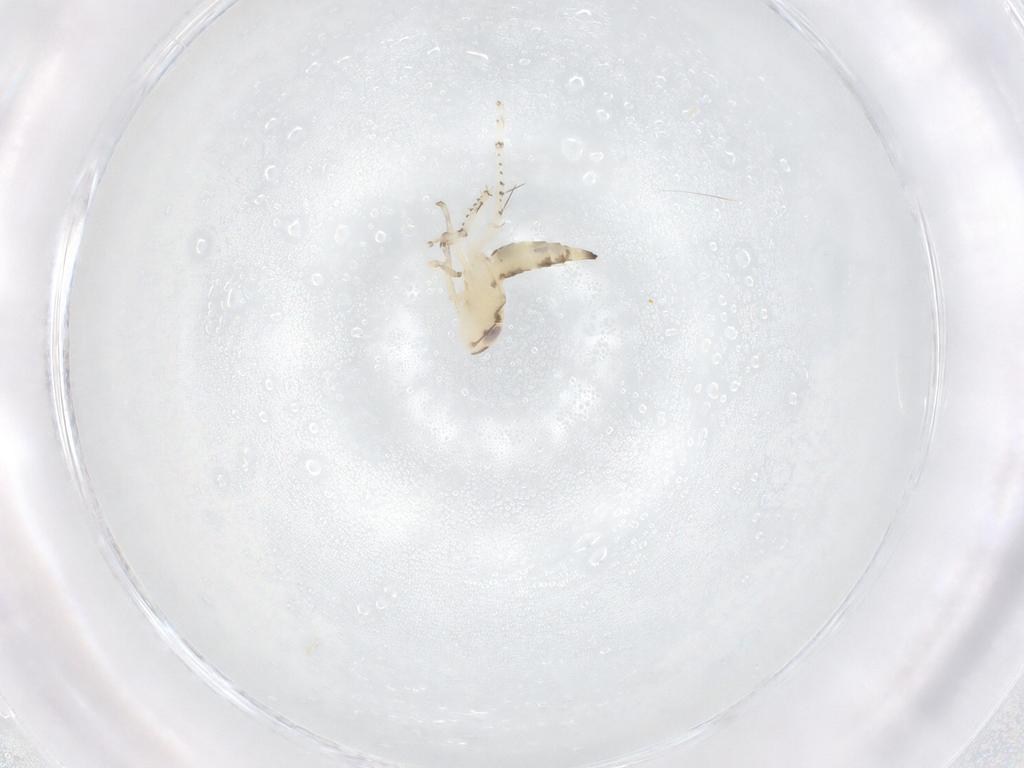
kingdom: Animalia
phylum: Arthropoda
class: Insecta
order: Hemiptera
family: Cicadellidae
